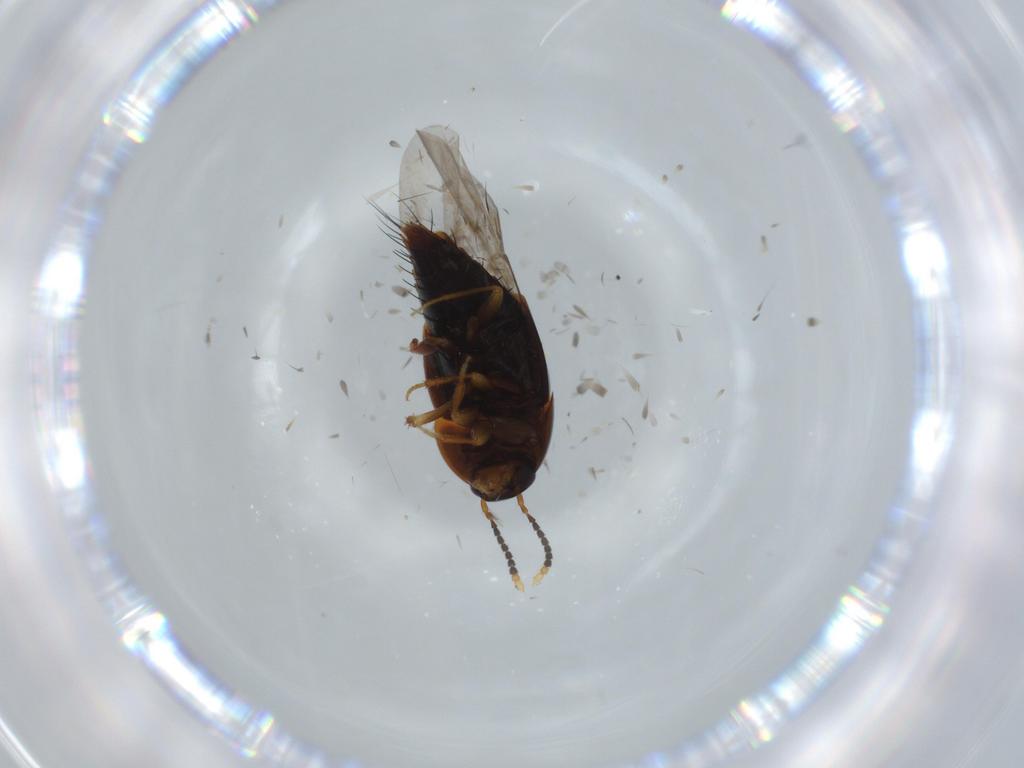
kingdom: Animalia
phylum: Arthropoda
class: Insecta
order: Coleoptera
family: Staphylinidae
